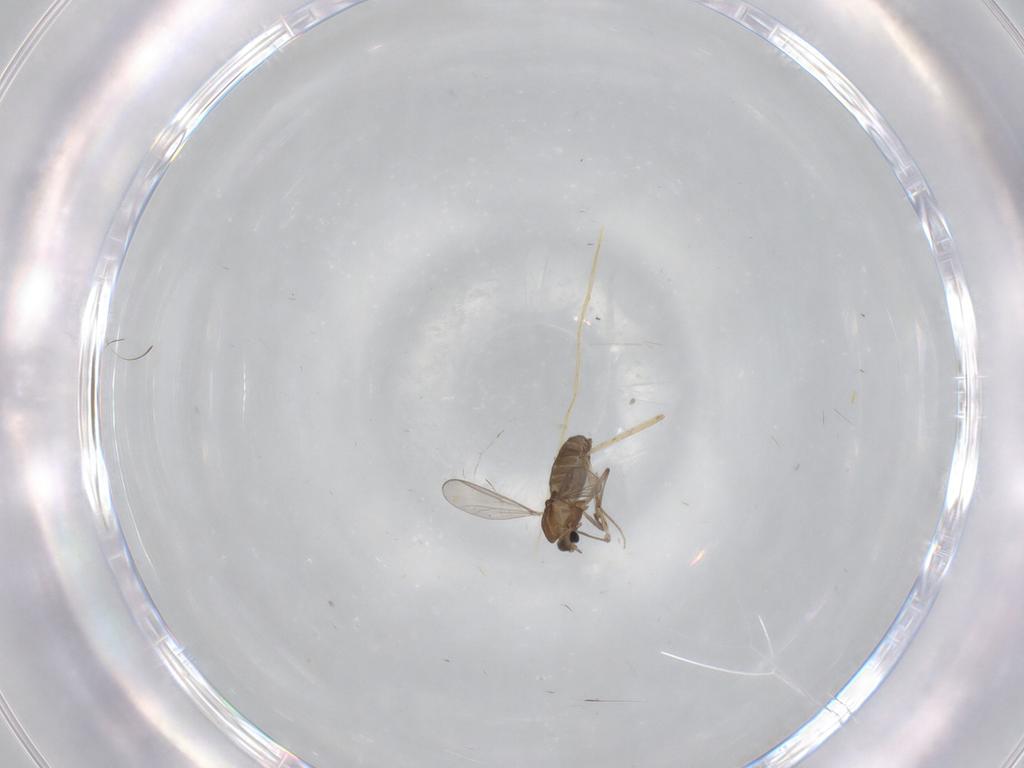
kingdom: Animalia
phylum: Arthropoda
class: Insecta
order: Diptera
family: Chironomidae
